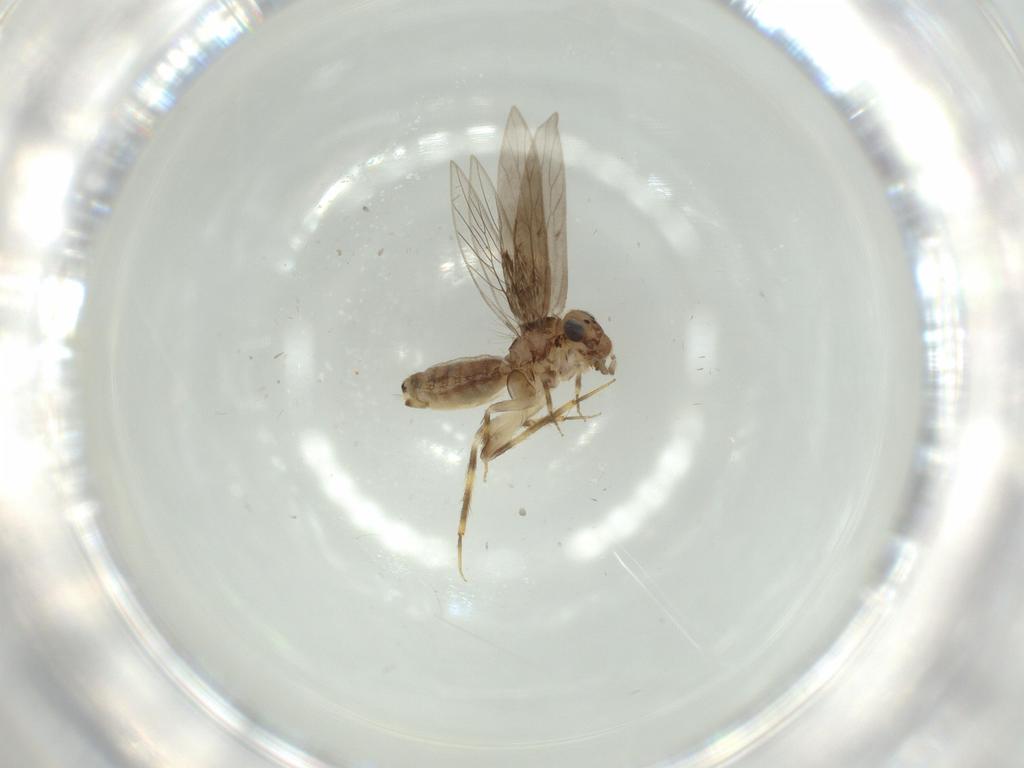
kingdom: Animalia
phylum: Arthropoda
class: Insecta
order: Psocodea
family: Lepidopsocidae
